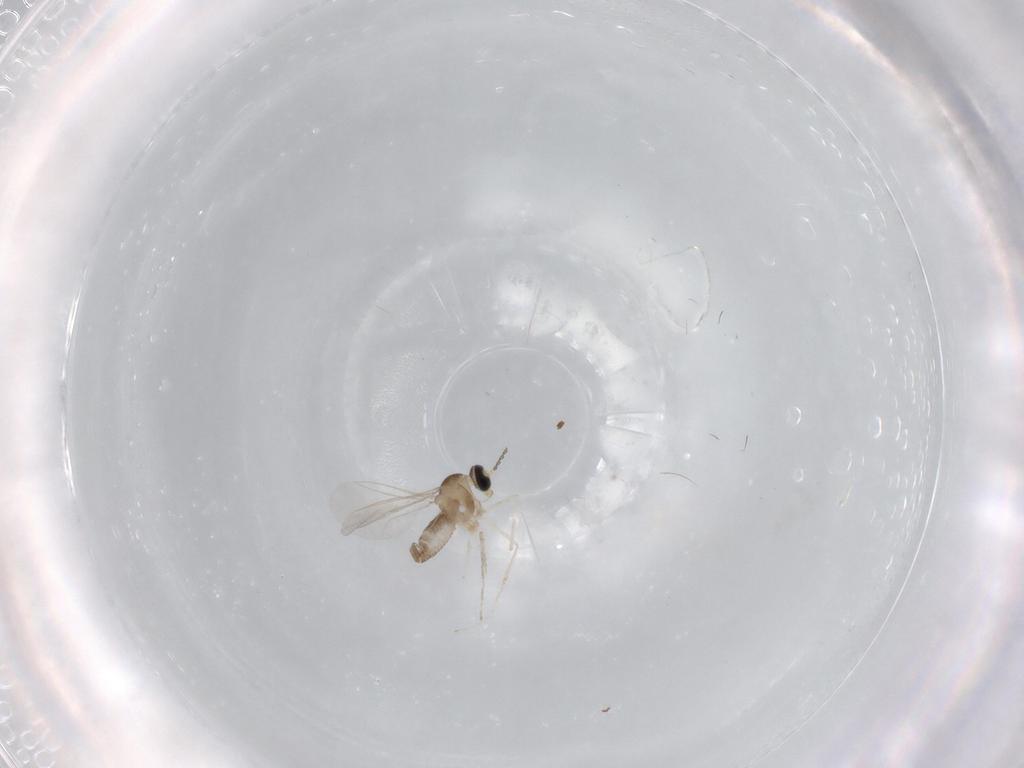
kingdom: Animalia
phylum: Arthropoda
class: Insecta
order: Diptera
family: Cecidomyiidae
